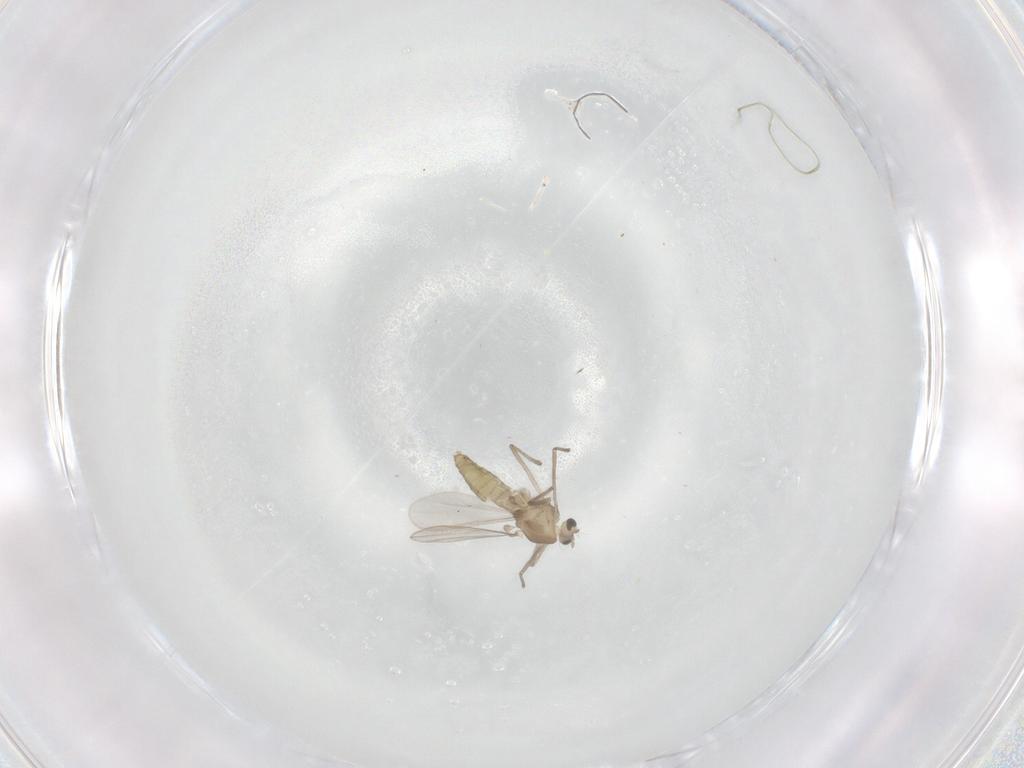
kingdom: Animalia
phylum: Arthropoda
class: Insecta
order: Diptera
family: Chironomidae
